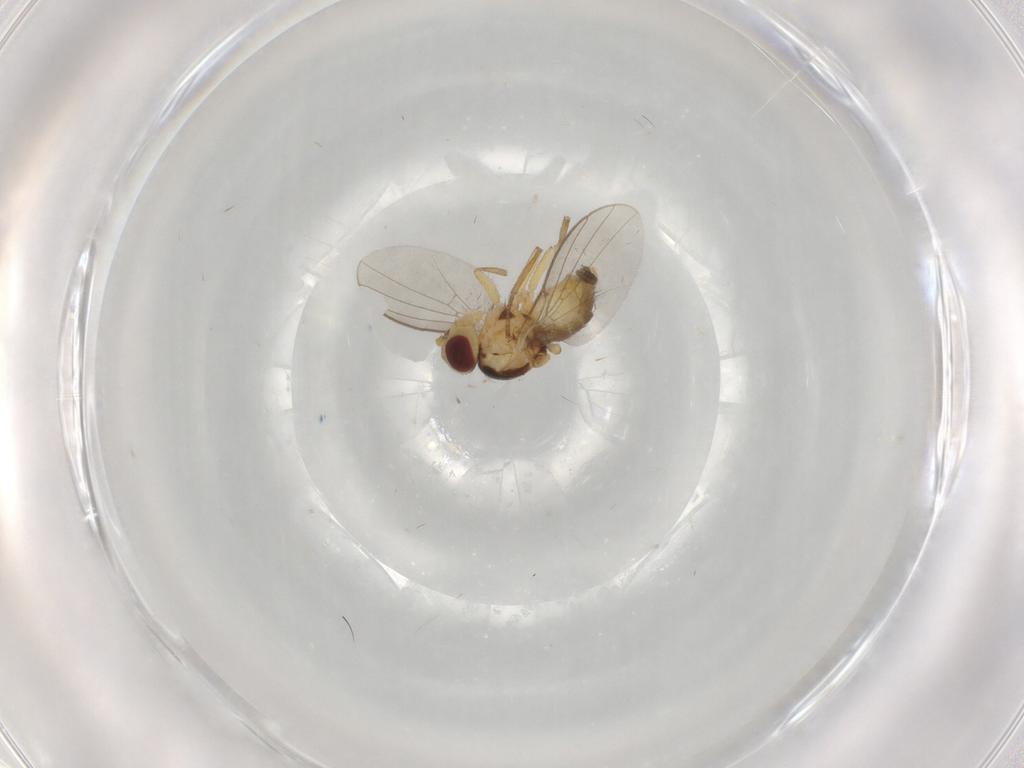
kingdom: Animalia
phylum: Arthropoda
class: Insecta
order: Diptera
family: Agromyzidae
